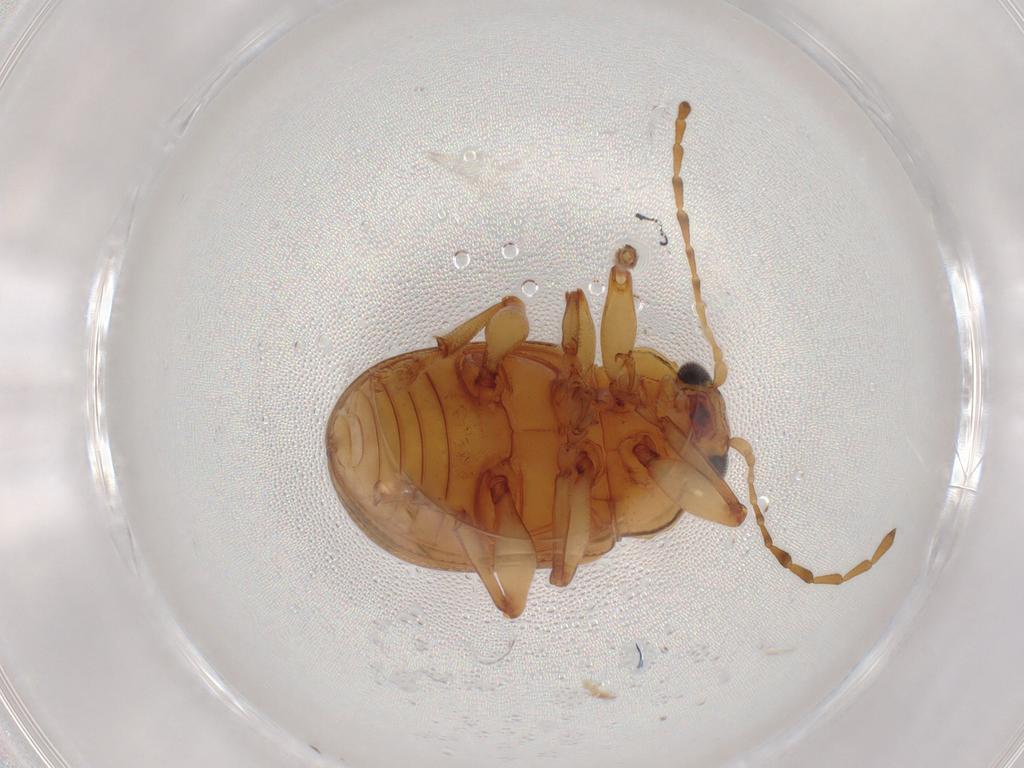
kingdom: Animalia
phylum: Arthropoda
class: Insecta
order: Coleoptera
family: Chrysomelidae
